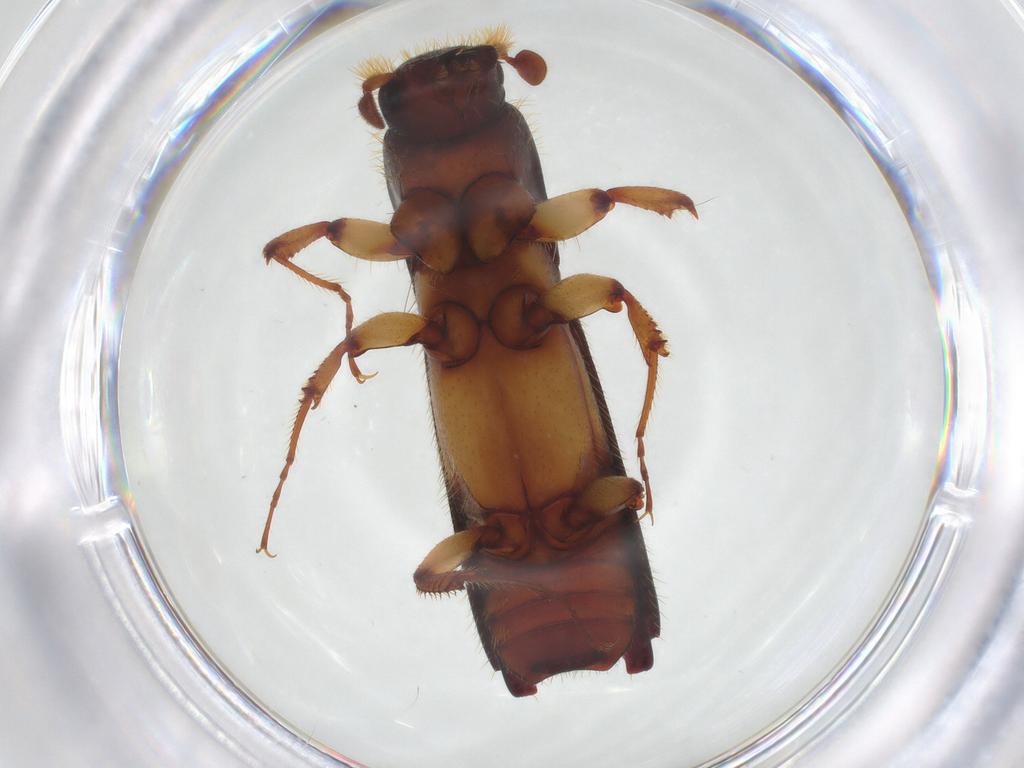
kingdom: Animalia
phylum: Arthropoda
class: Insecta
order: Coleoptera
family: Curculionidae
